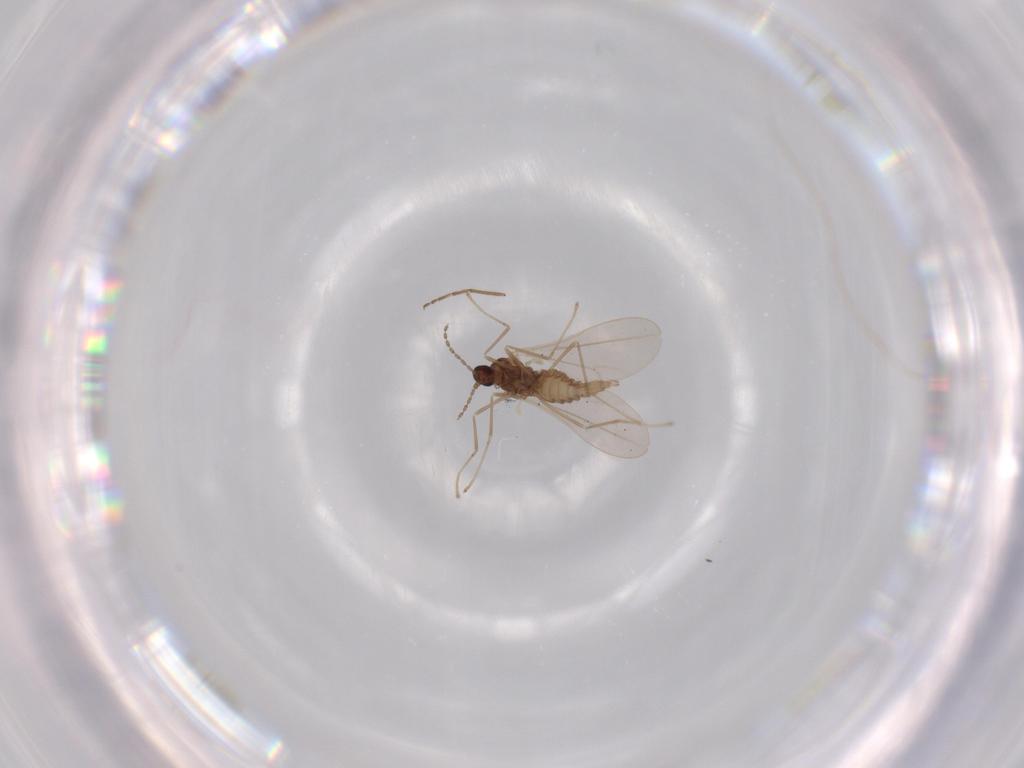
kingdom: Animalia
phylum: Arthropoda
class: Insecta
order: Diptera
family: Cecidomyiidae
